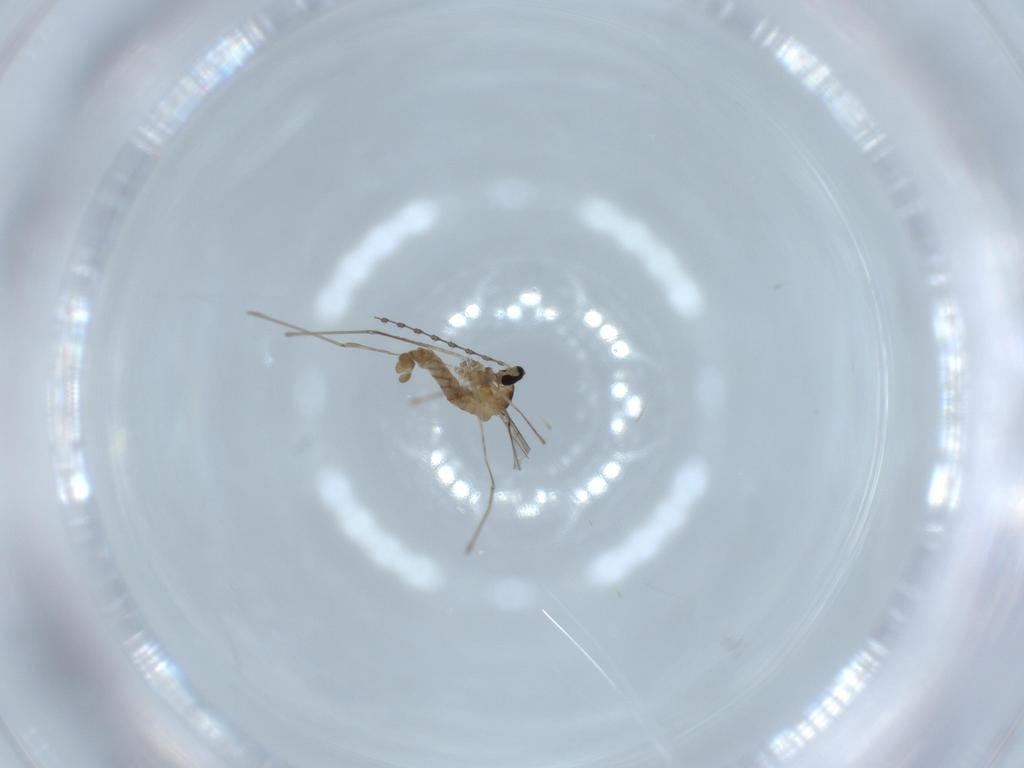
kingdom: Animalia
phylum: Arthropoda
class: Insecta
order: Diptera
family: Cecidomyiidae
